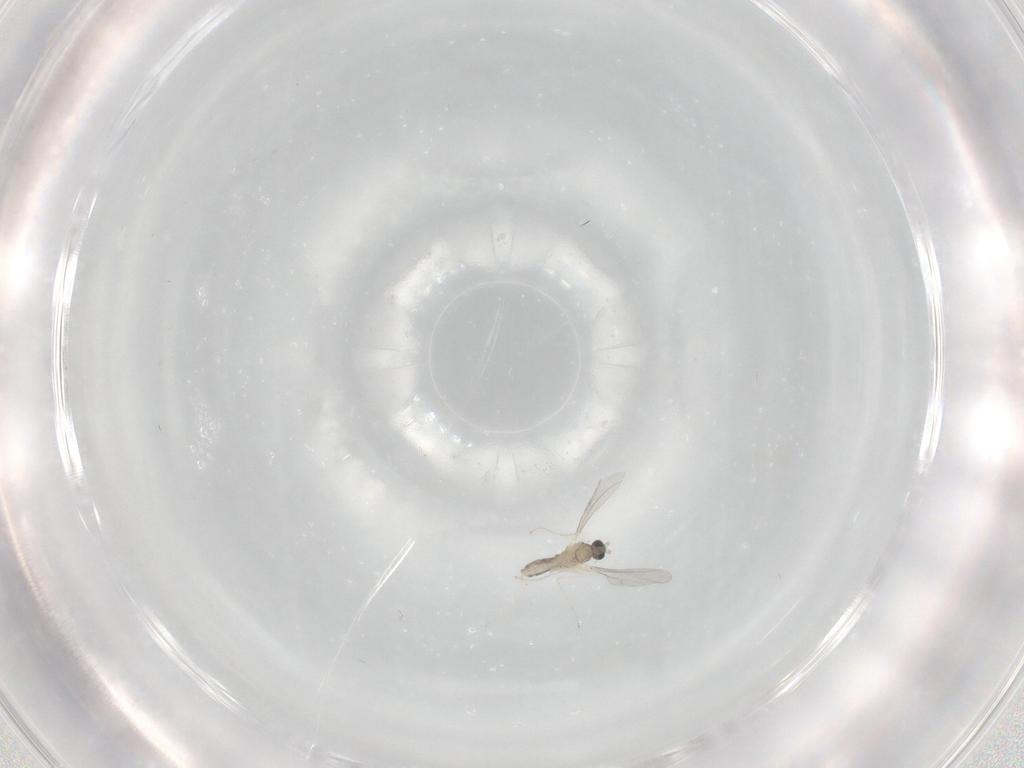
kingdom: Animalia
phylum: Arthropoda
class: Insecta
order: Diptera
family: Cecidomyiidae
